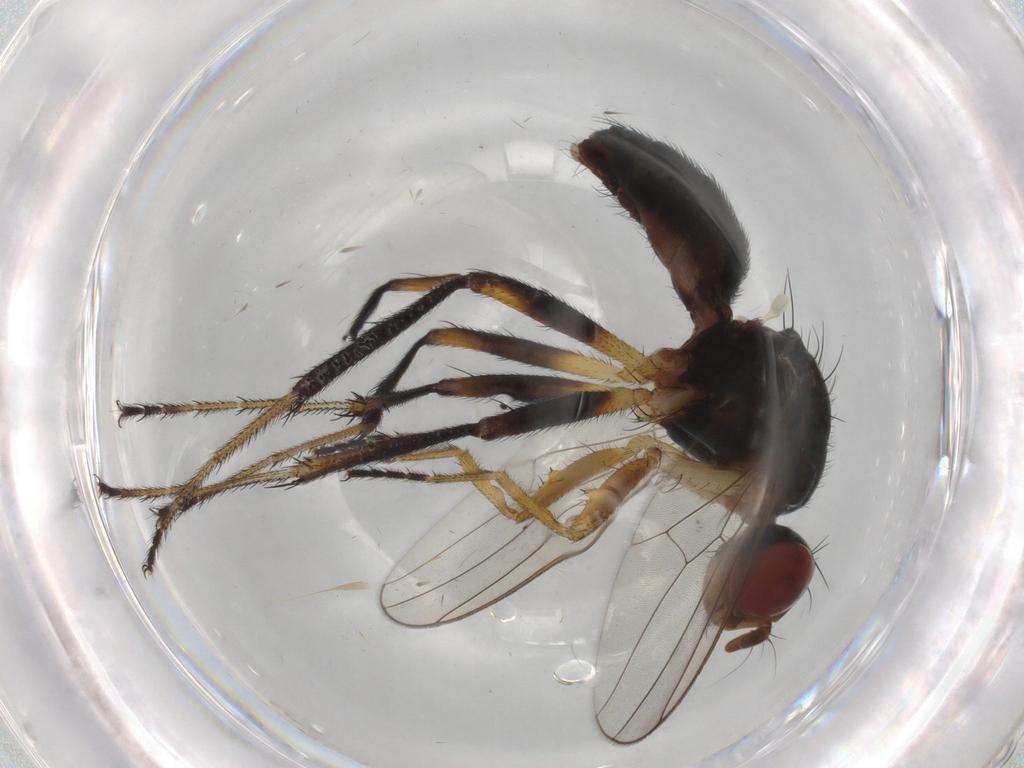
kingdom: Animalia
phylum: Arthropoda
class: Insecta
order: Diptera
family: Sepsidae
